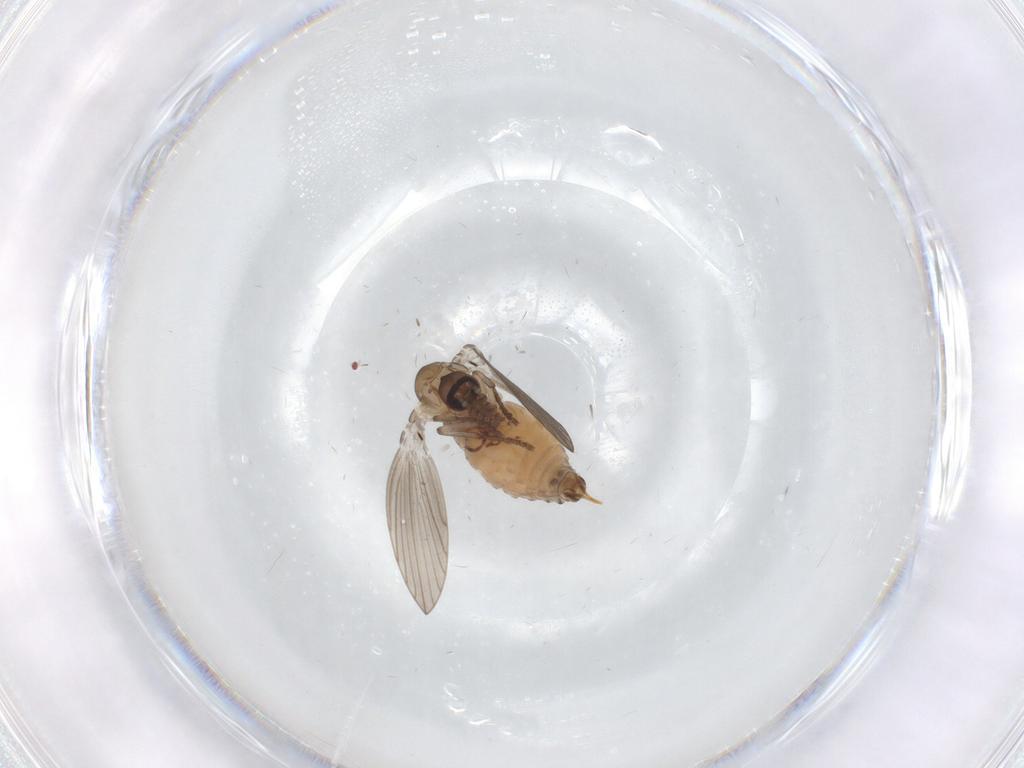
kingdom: Animalia
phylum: Arthropoda
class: Insecta
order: Diptera
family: Psychodidae
